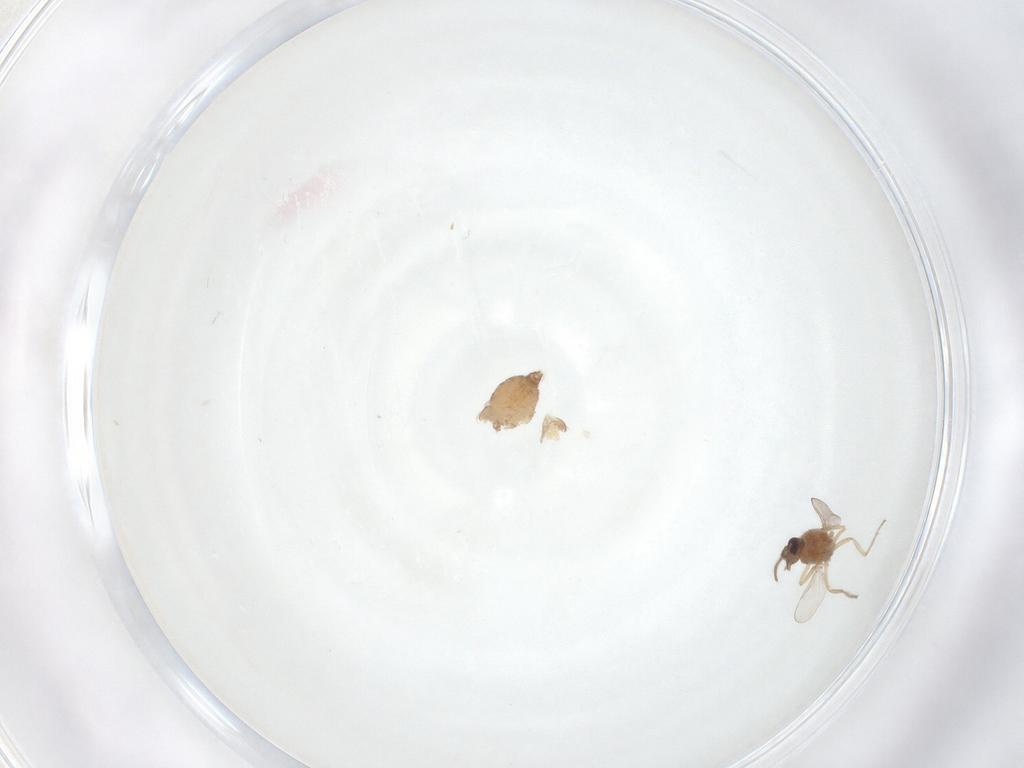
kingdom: Animalia
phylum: Arthropoda
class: Insecta
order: Diptera
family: Ceratopogonidae
